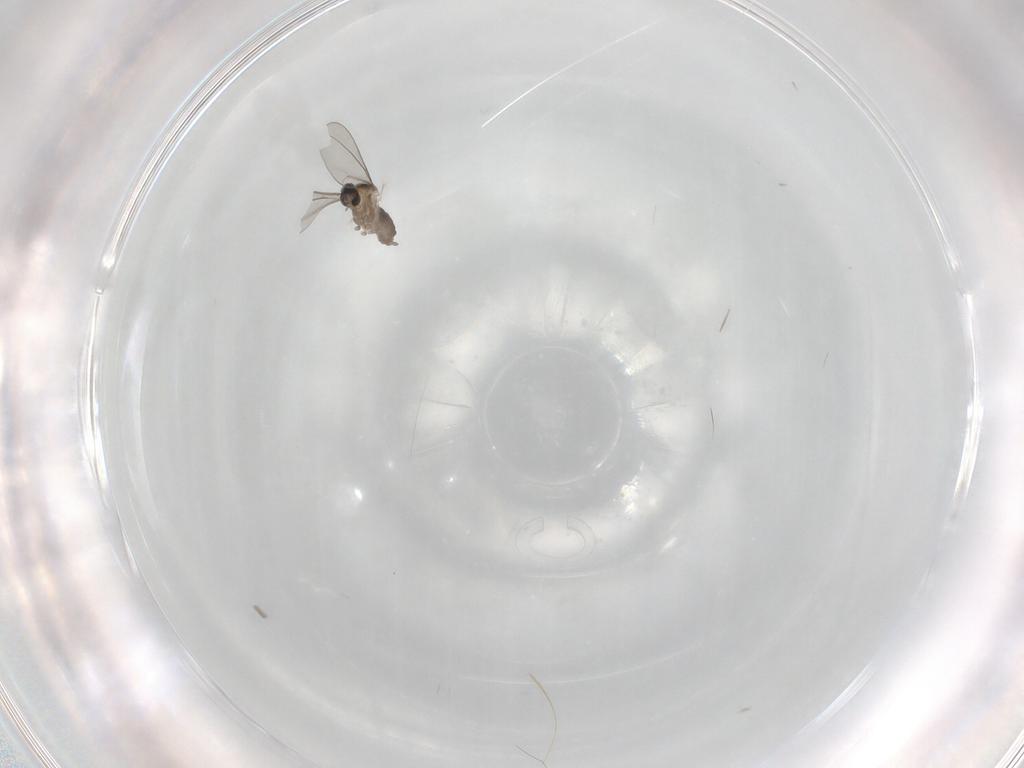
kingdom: Animalia
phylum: Arthropoda
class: Insecta
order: Diptera
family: Cecidomyiidae
